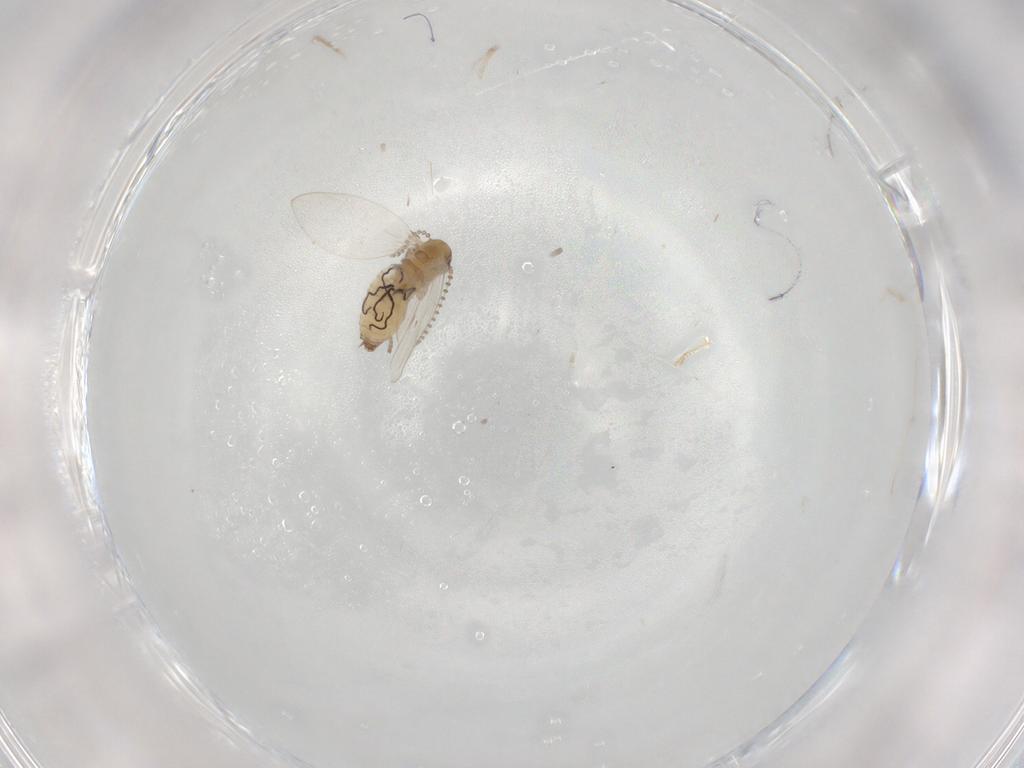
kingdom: Animalia
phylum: Arthropoda
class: Insecta
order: Diptera
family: Psychodidae
